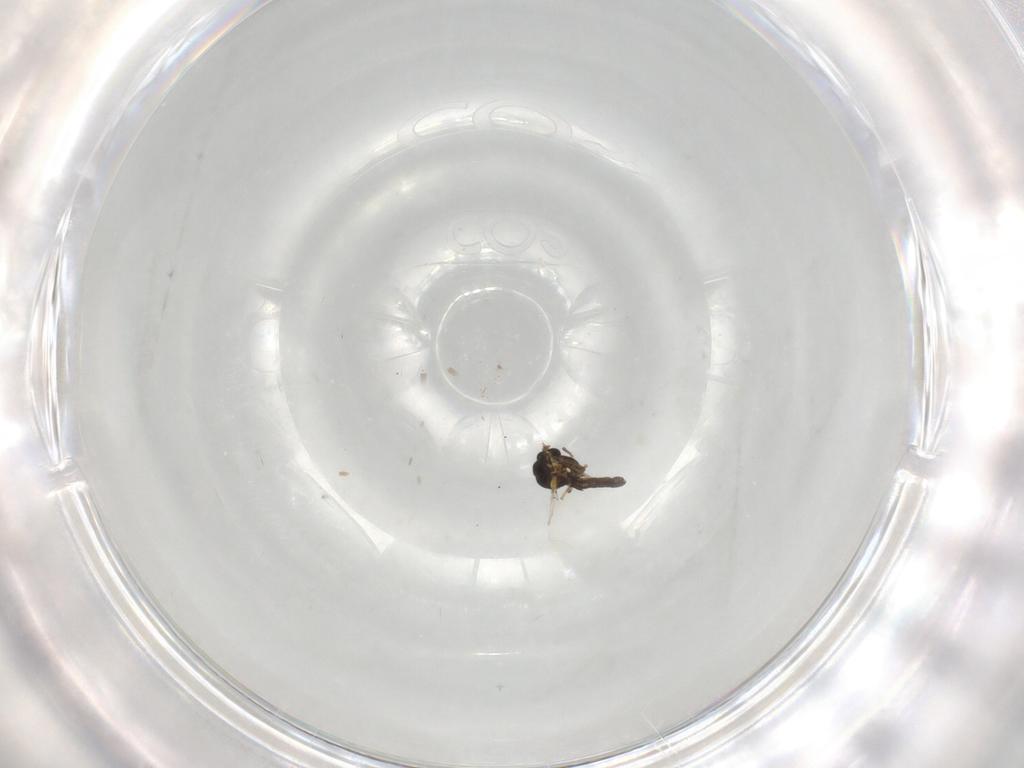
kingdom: Animalia
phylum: Arthropoda
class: Insecta
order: Diptera
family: Ceratopogonidae
